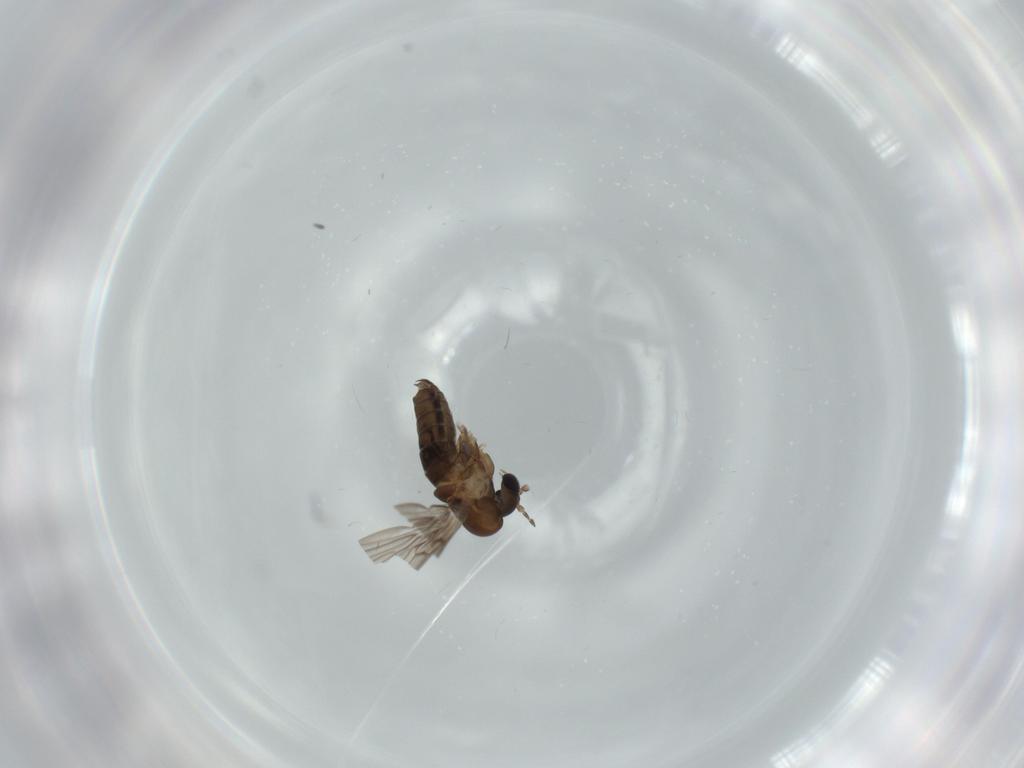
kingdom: Animalia
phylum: Arthropoda
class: Insecta
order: Diptera
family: Psychodidae
